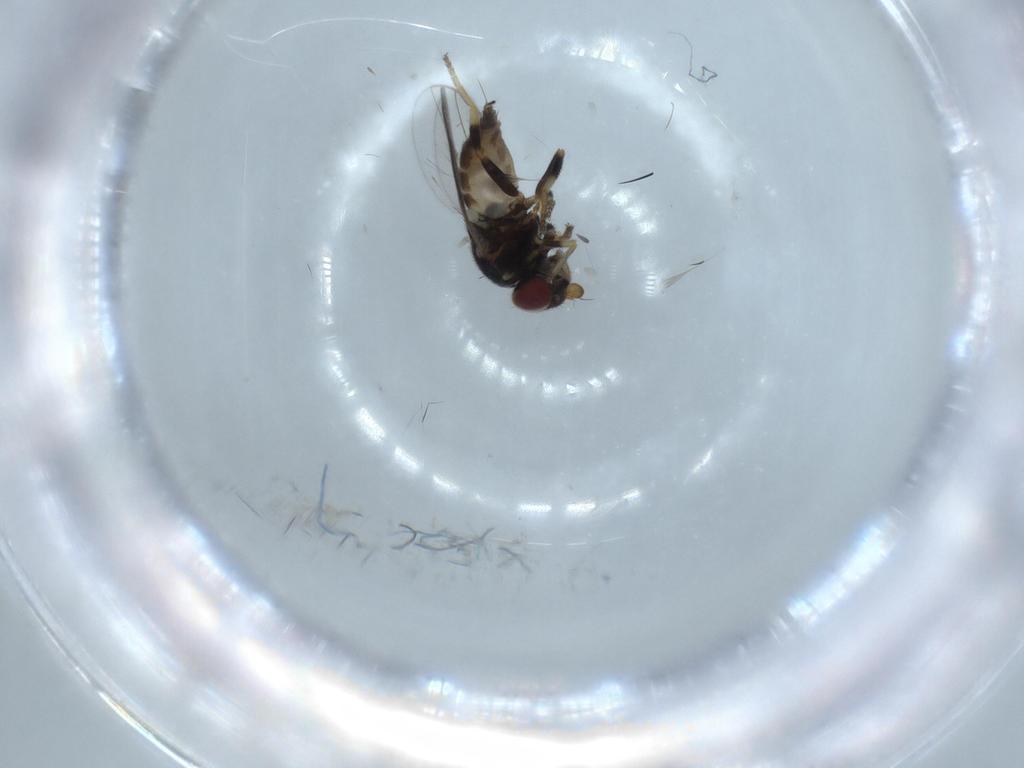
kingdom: Animalia
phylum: Arthropoda
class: Insecta
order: Diptera
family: Chloropidae
